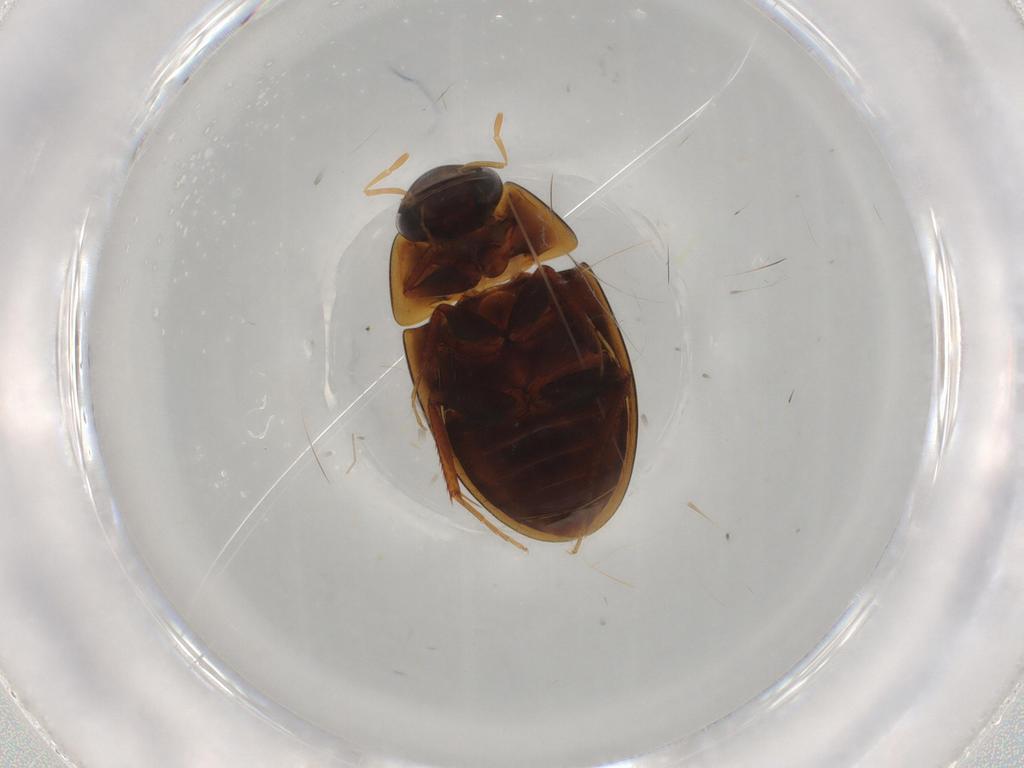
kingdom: Animalia
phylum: Arthropoda
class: Insecta
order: Coleoptera
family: Hydrophilidae
